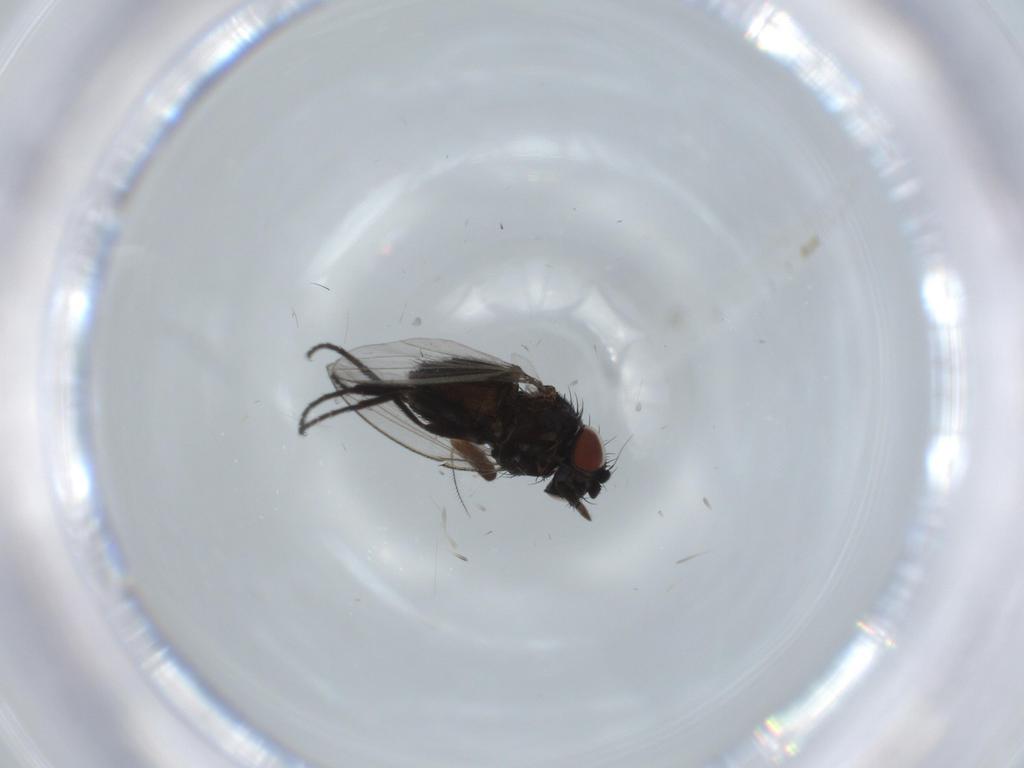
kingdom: Animalia
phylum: Arthropoda
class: Insecta
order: Diptera
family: Lonchaeidae
